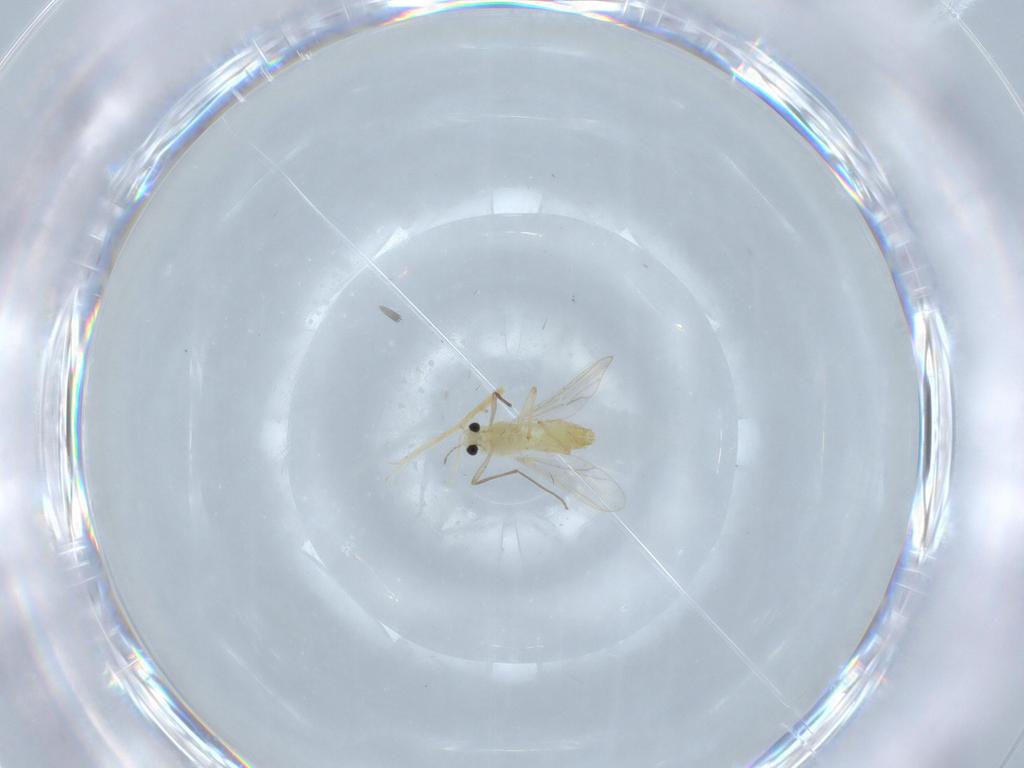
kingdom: Animalia
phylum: Arthropoda
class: Insecta
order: Diptera
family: Chironomidae
